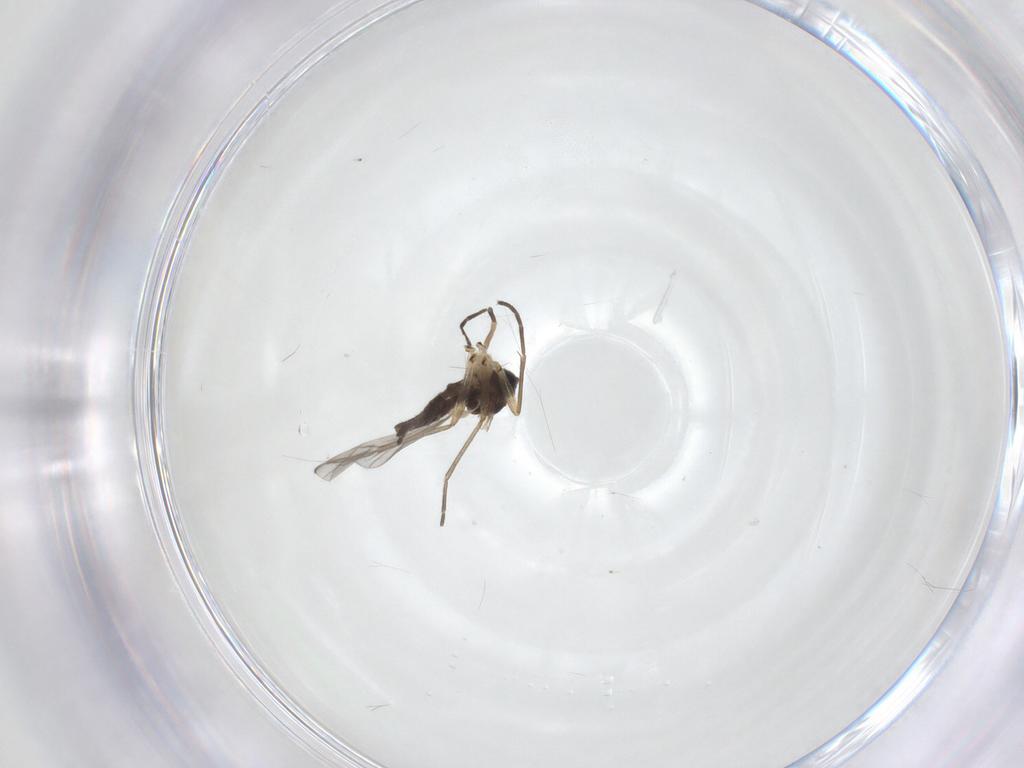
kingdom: Animalia
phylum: Arthropoda
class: Insecta
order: Diptera
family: Sciaridae
